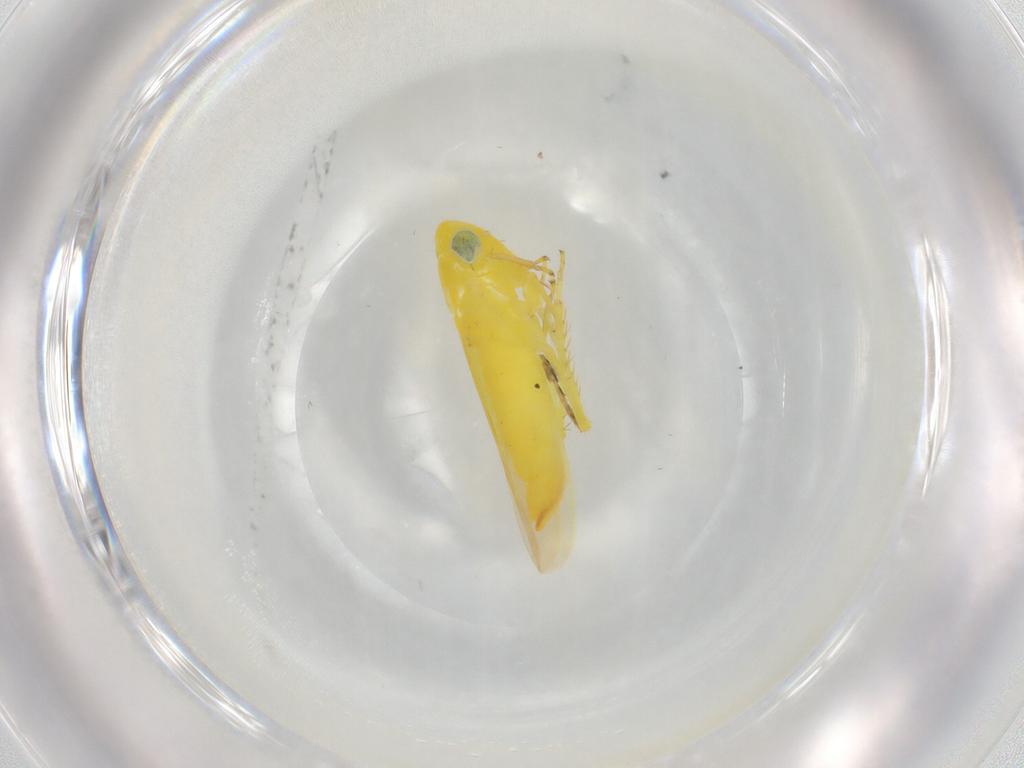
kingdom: Animalia
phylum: Arthropoda
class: Insecta
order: Hemiptera
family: Cicadellidae
